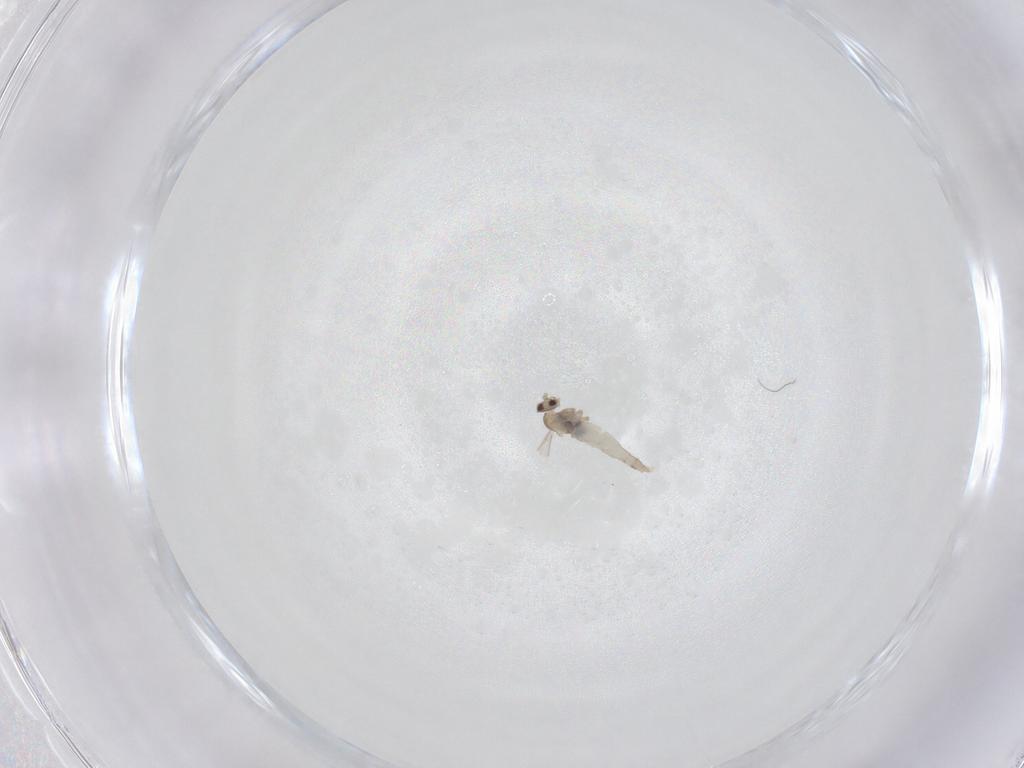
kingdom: Animalia
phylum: Arthropoda
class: Insecta
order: Diptera
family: Cecidomyiidae
